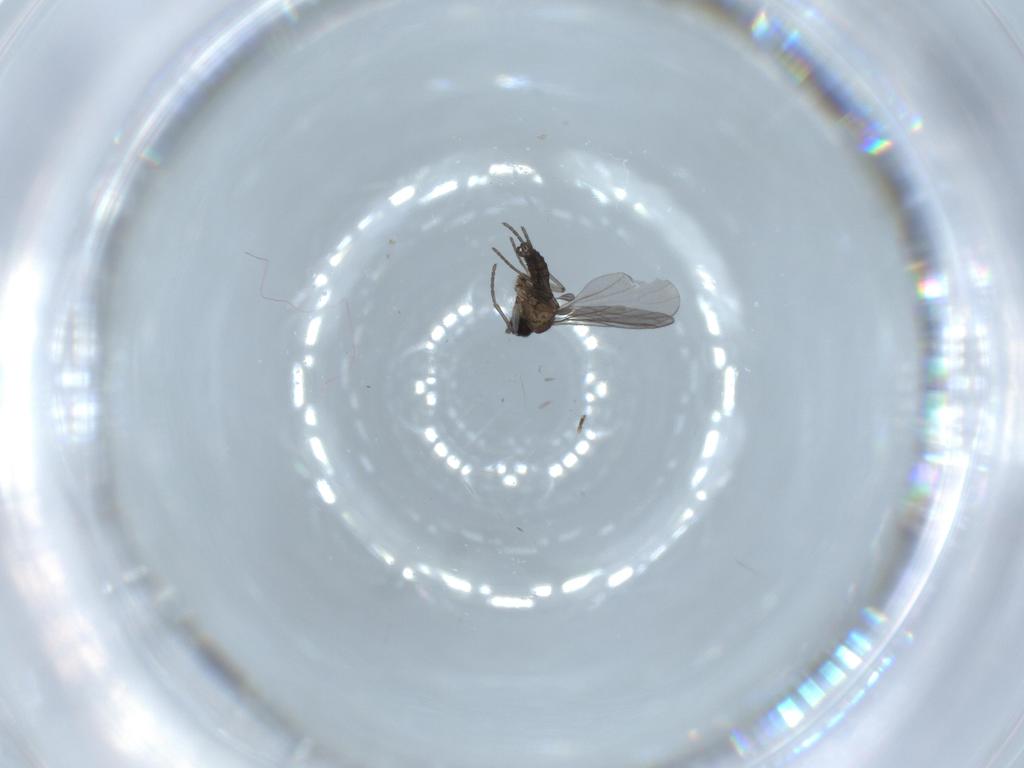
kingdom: Animalia
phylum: Arthropoda
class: Insecta
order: Diptera
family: Hybotidae
